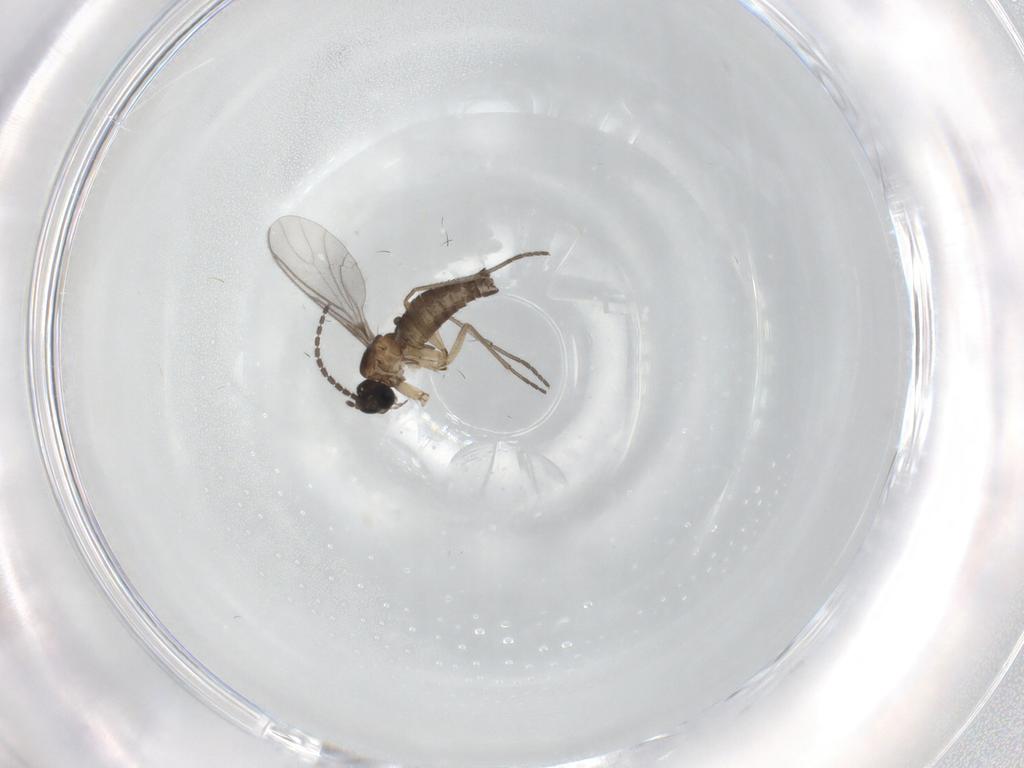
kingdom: Animalia
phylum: Arthropoda
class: Insecta
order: Diptera
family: Sciaridae
